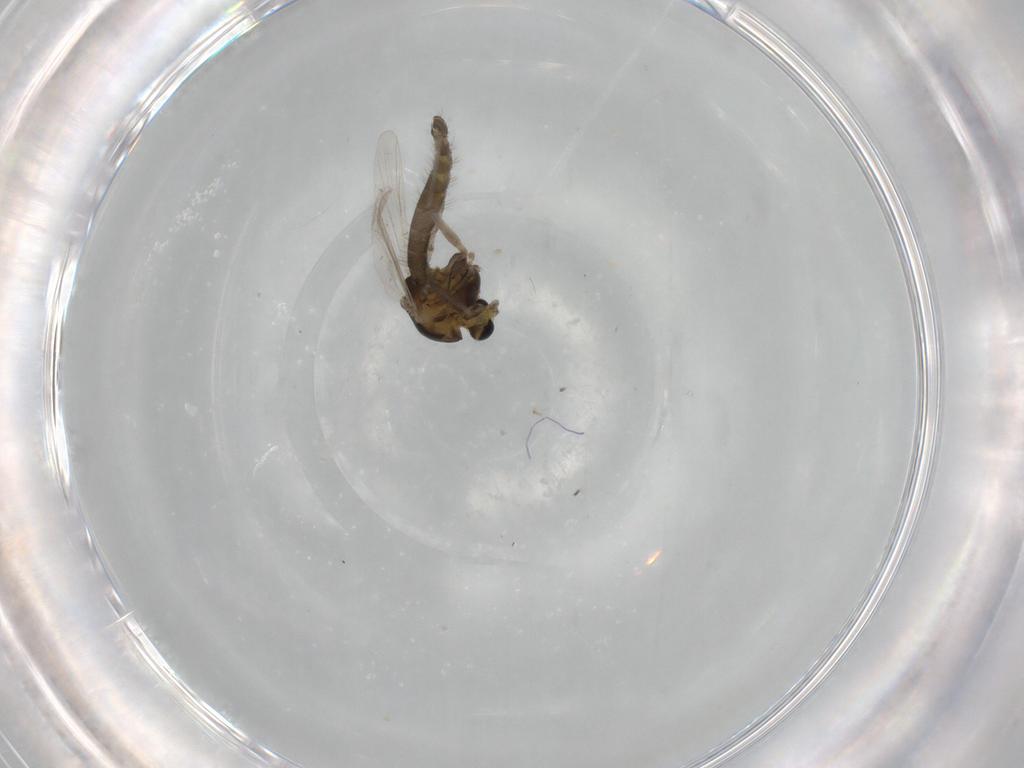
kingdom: Animalia
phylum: Arthropoda
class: Insecta
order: Diptera
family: Chironomidae
